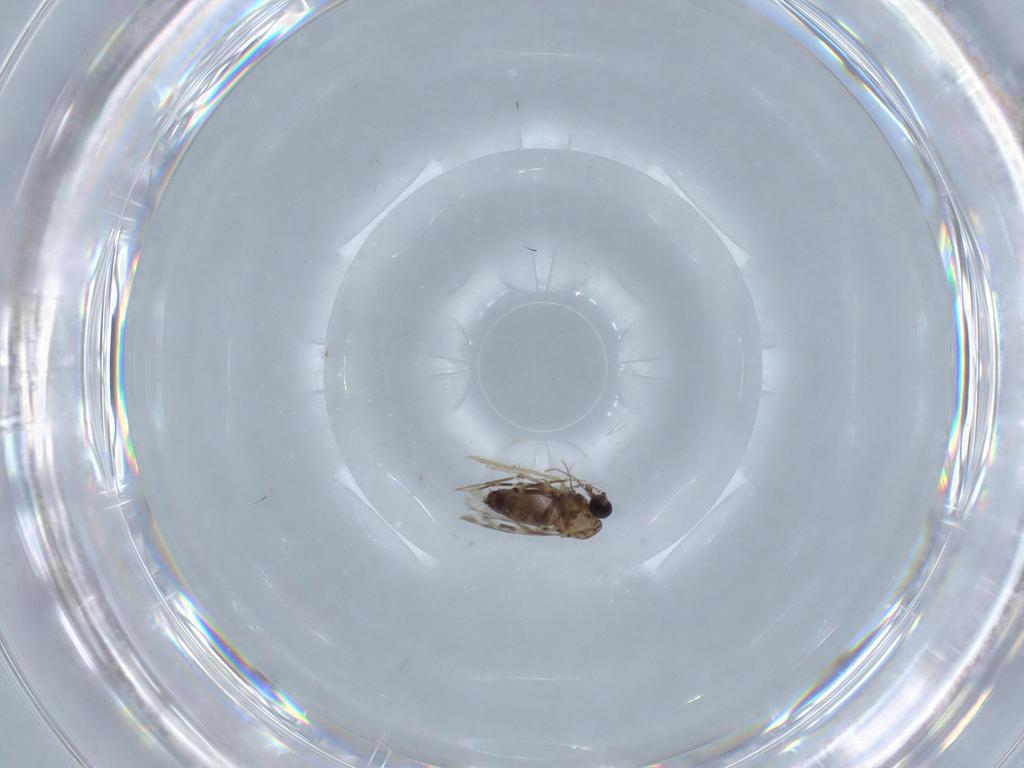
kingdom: Animalia
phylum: Arthropoda
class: Insecta
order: Diptera
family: Ceratopogonidae
